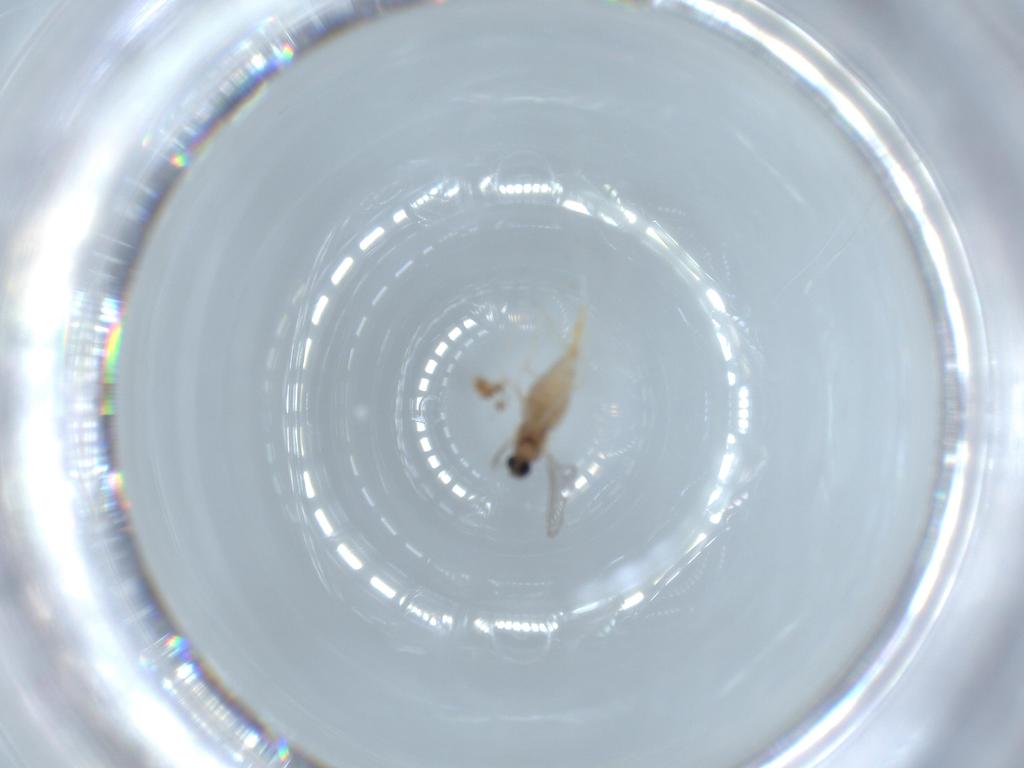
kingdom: Animalia
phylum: Arthropoda
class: Insecta
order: Diptera
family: Cecidomyiidae
